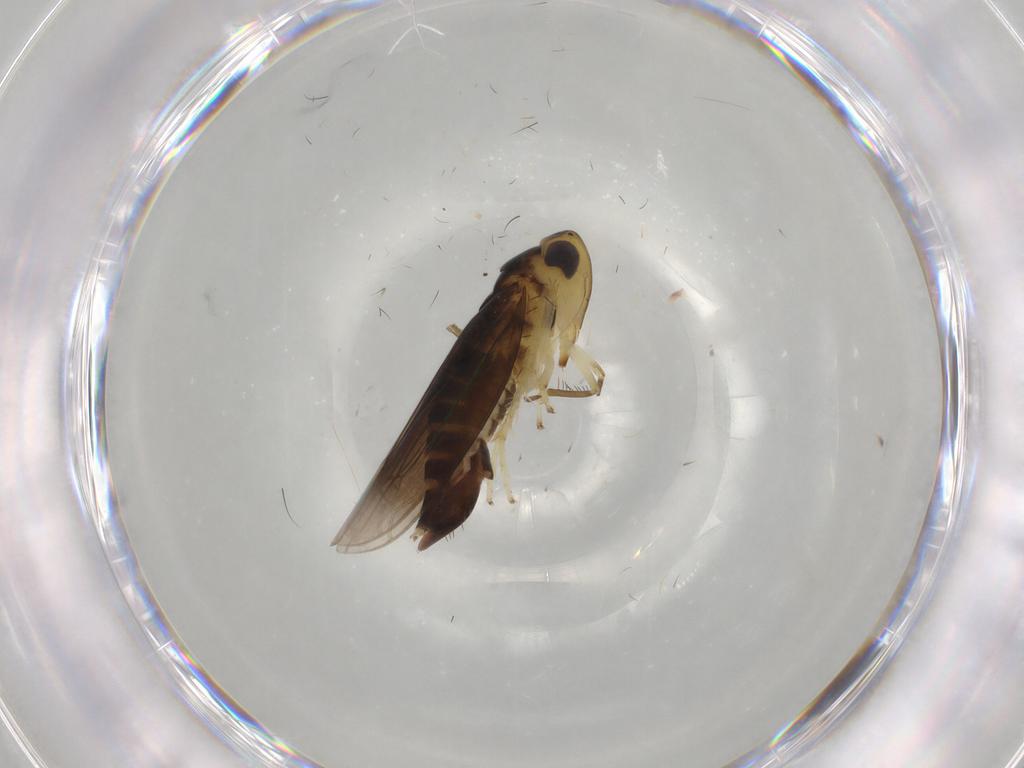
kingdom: Animalia
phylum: Arthropoda
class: Insecta
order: Hemiptera
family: Cicadellidae
